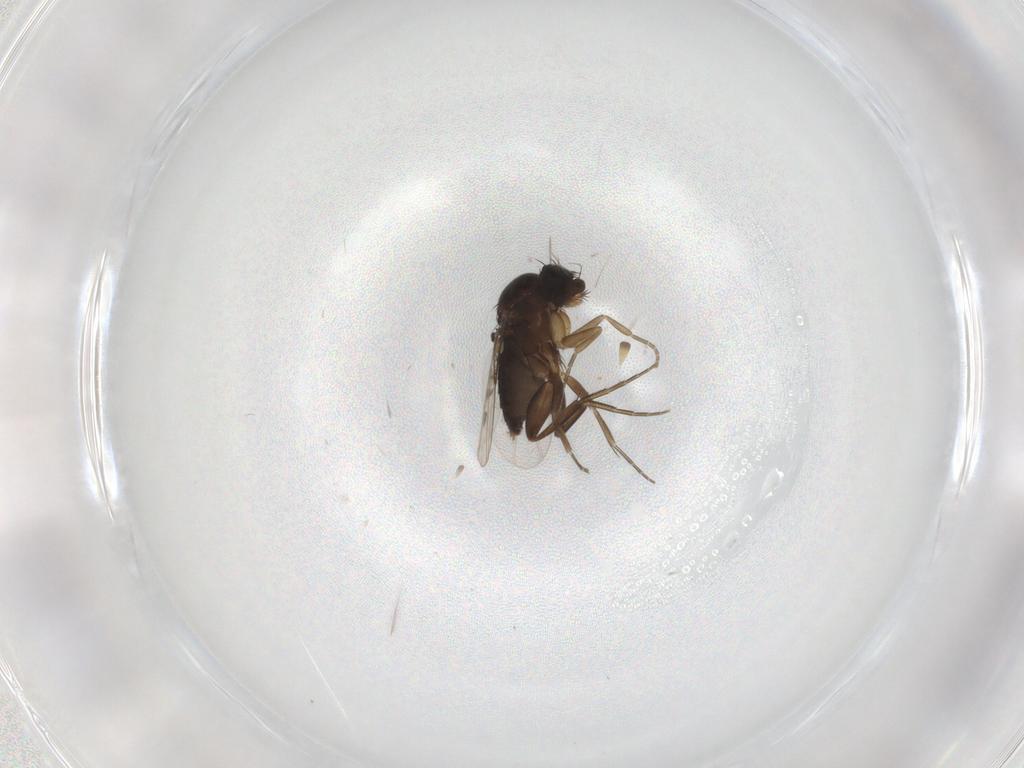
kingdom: Animalia
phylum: Arthropoda
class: Insecta
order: Diptera
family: Phoridae
